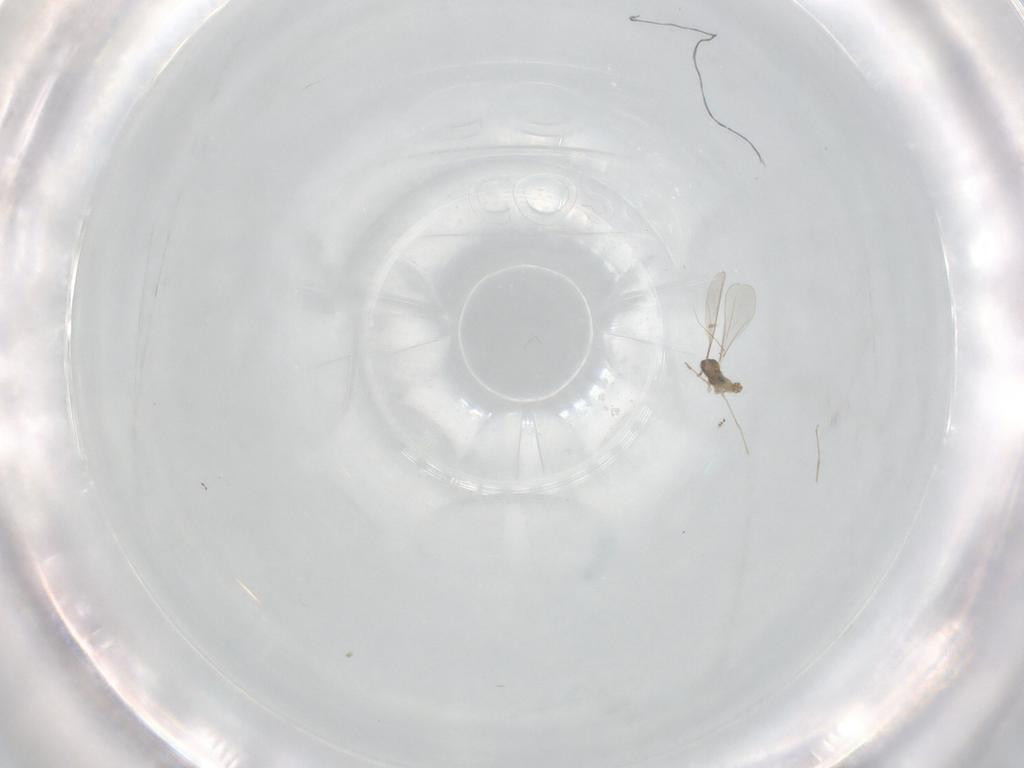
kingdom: Animalia
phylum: Arthropoda
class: Insecta
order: Diptera
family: Cecidomyiidae
